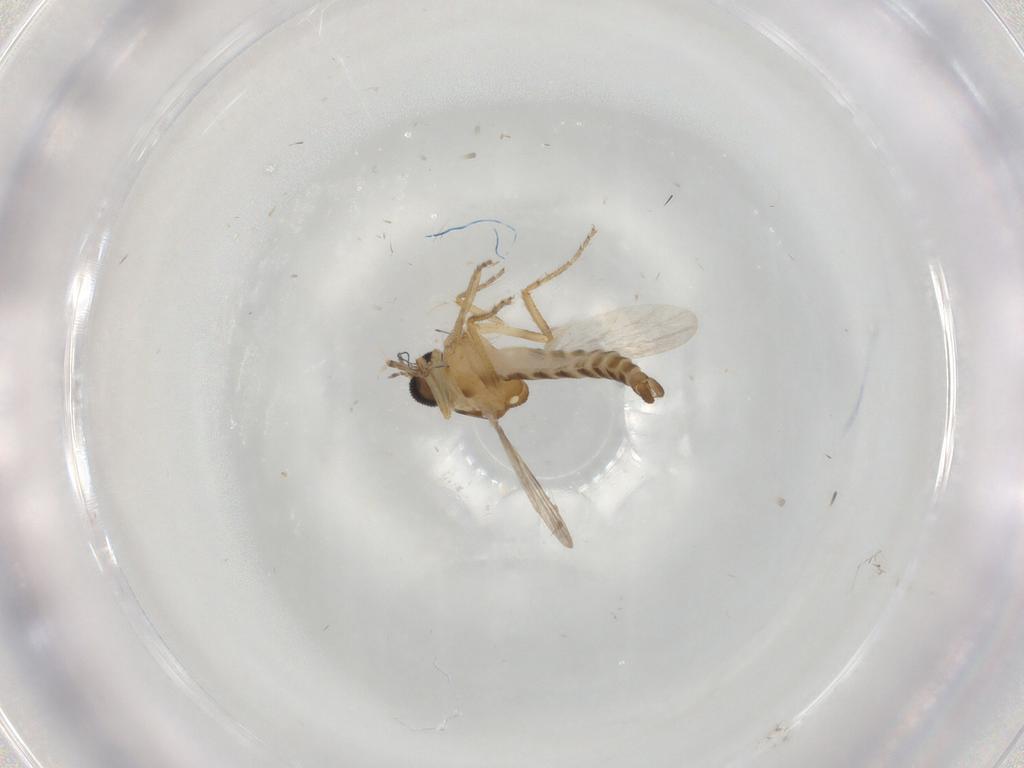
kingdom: Animalia
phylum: Arthropoda
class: Insecta
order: Diptera
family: Ceratopogonidae
